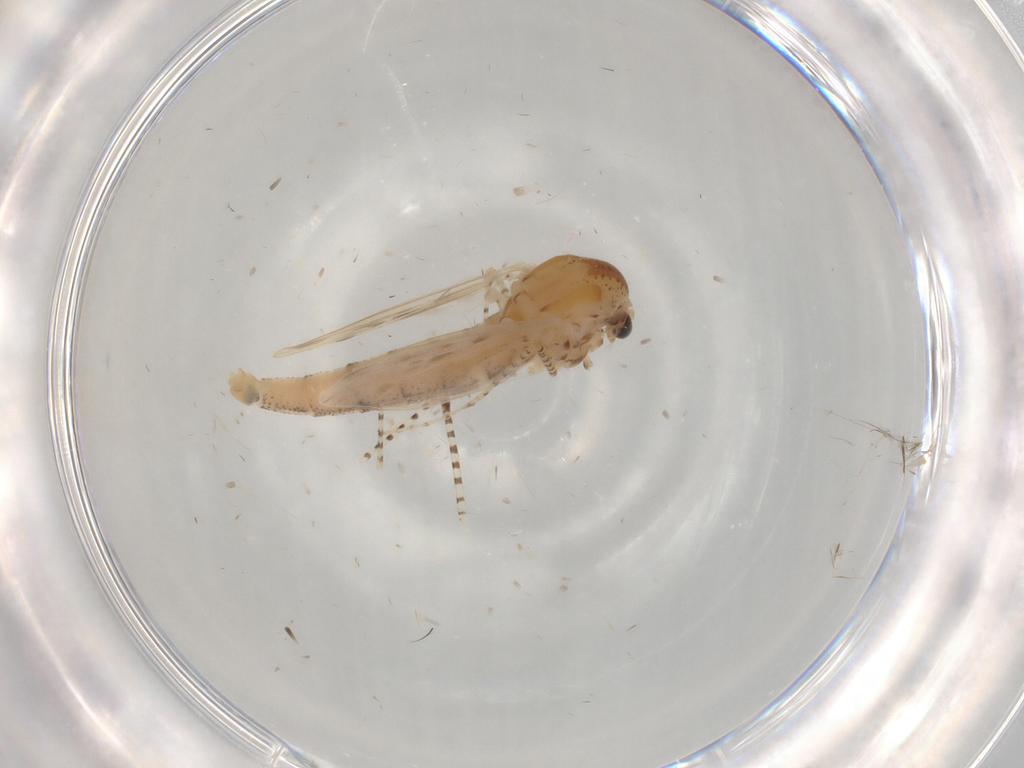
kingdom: Animalia
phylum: Arthropoda
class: Insecta
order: Diptera
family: Chaoboridae
